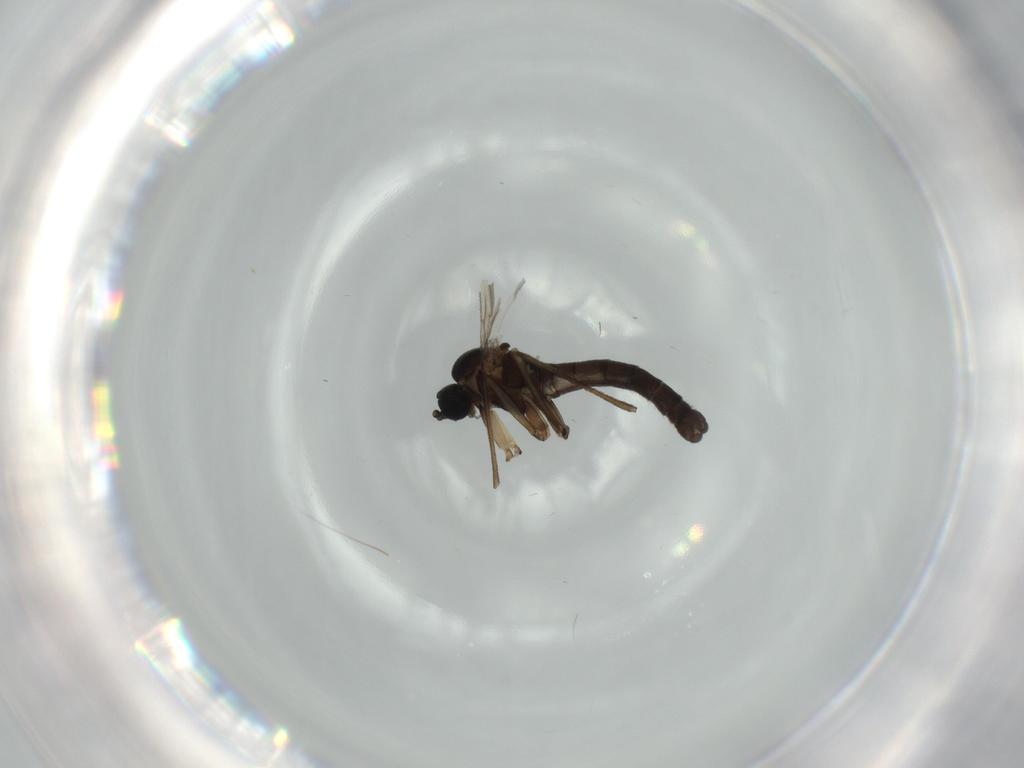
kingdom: Animalia
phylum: Arthropoda
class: Insecta
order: Diptera
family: Sciaridae
